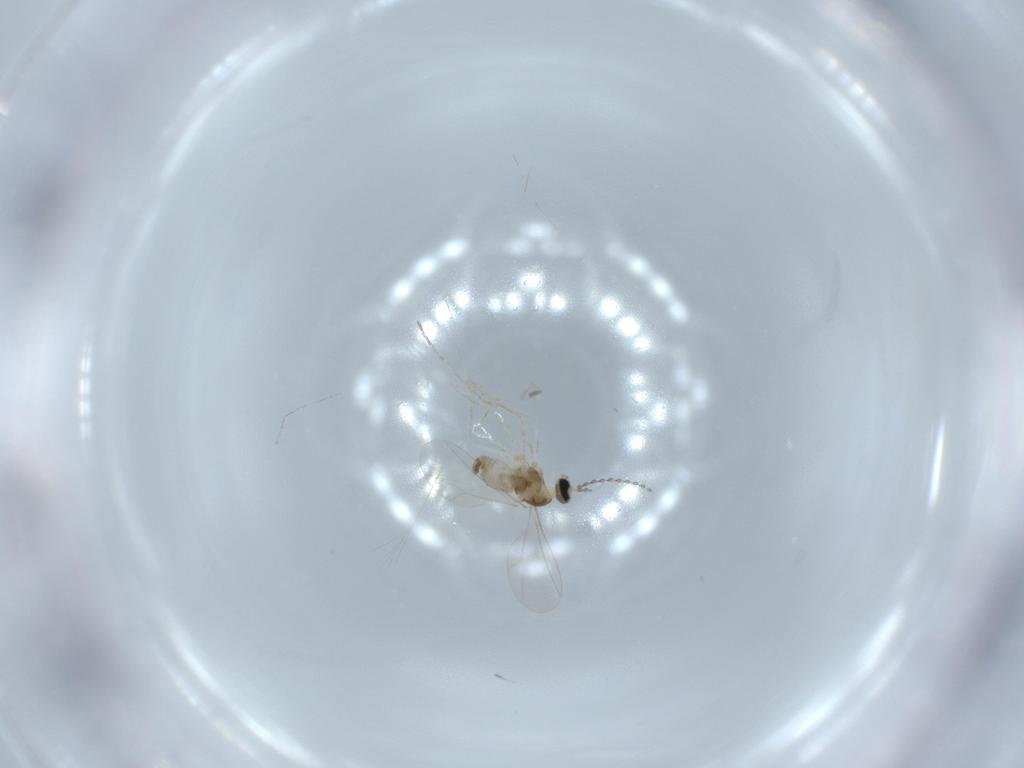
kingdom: Animalia
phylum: Arthropoda
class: Insecta
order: Diptera
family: Cecidomyiidae
